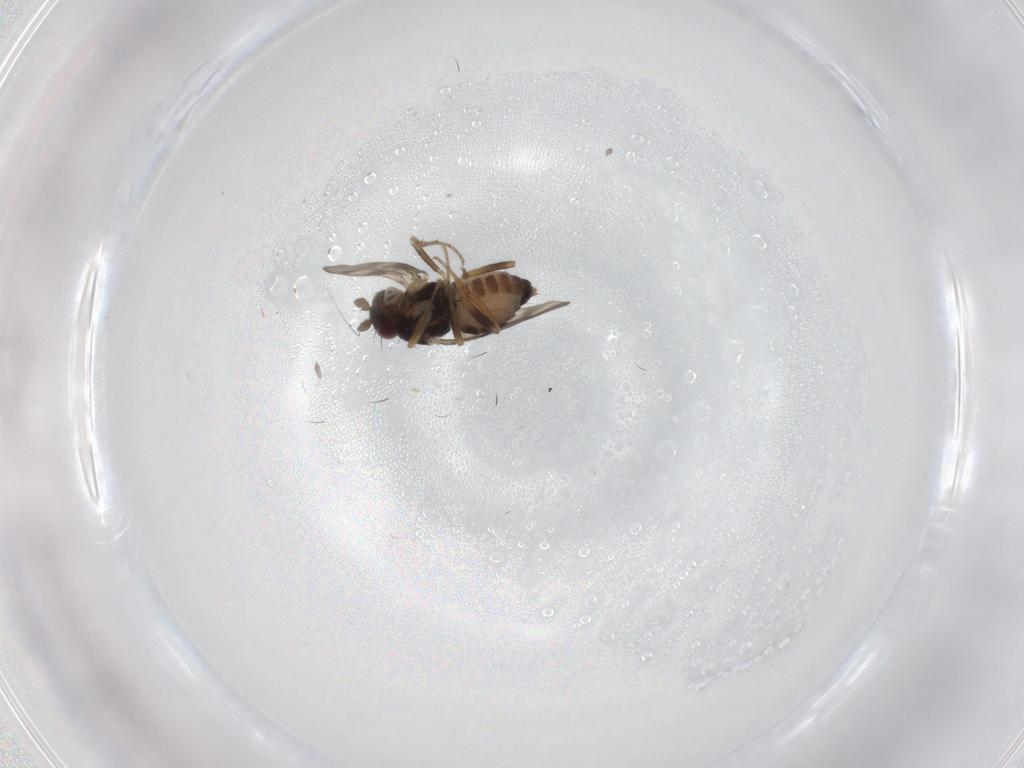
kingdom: Animalia
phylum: Arthropoda
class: Insecta
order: Diptera
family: Sphaeroceridae
